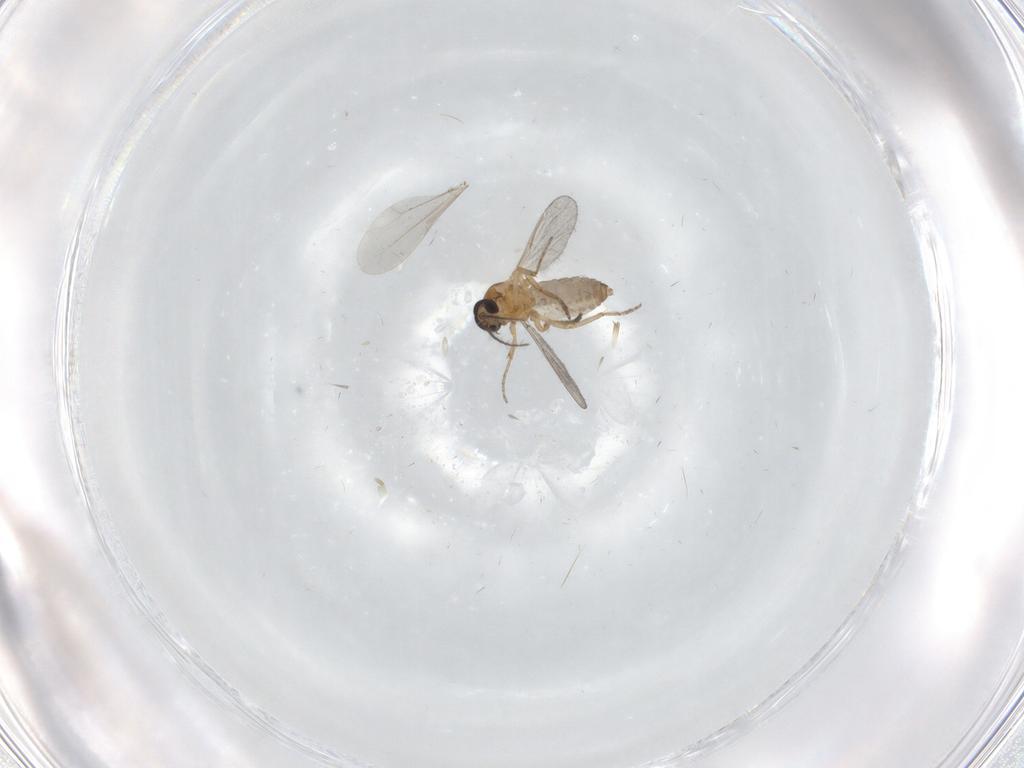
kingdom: Animalia
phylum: Arthropoda
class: Insecta
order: Diptera
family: Ceratopogonidae
